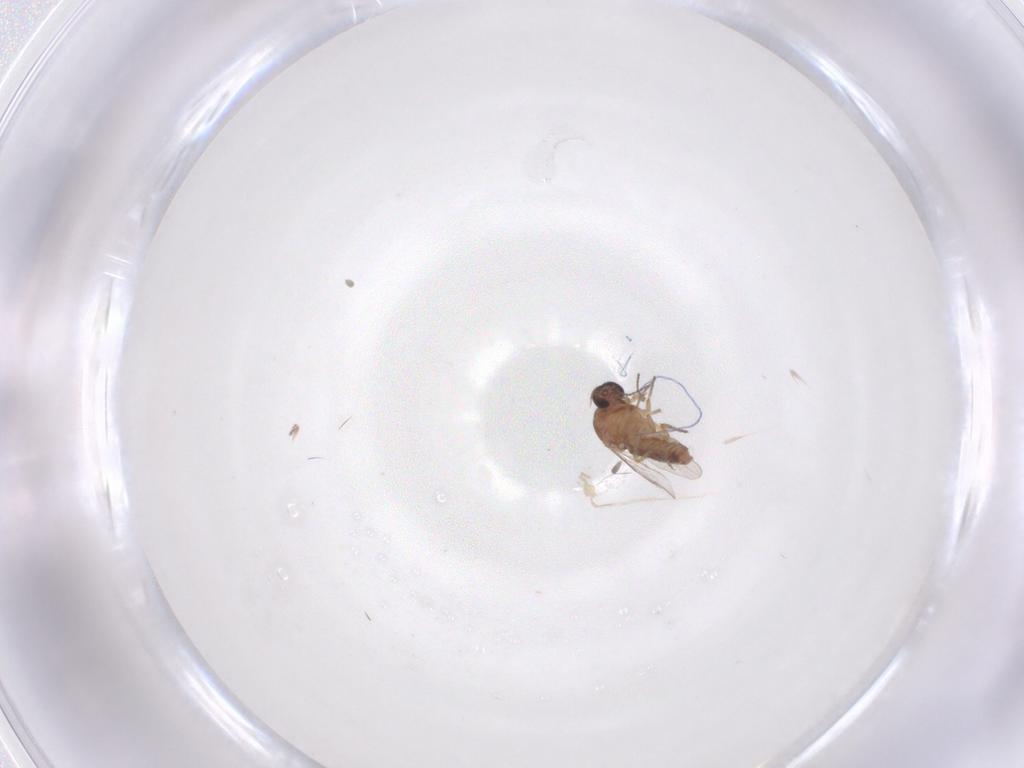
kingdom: Animalia
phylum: Arthropoda
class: Insecta
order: Diptera
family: Ceratopogonidae
